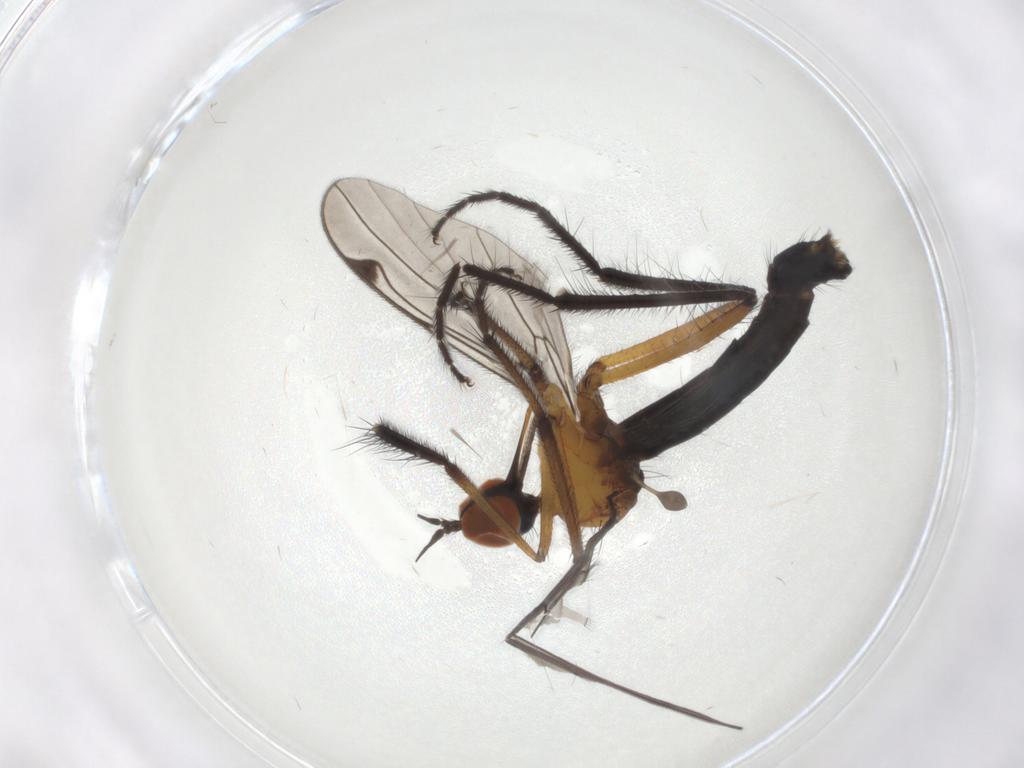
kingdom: Animalia
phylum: Arthropoda
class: Insecta
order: Diptera
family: Empididae
